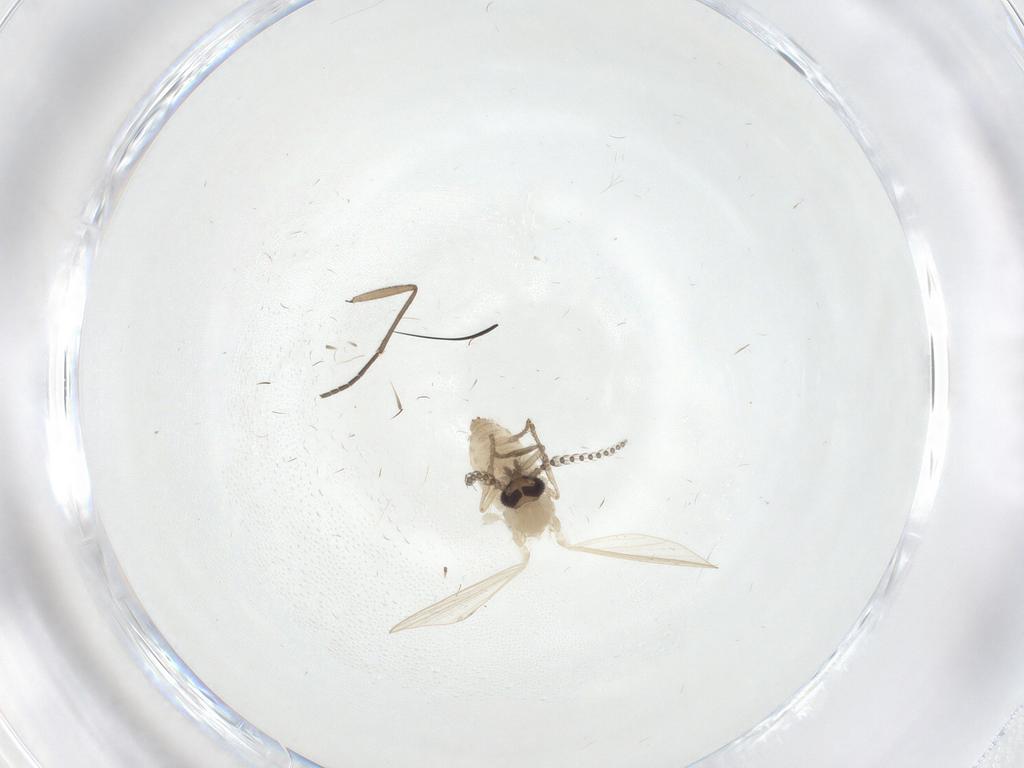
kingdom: Animalia
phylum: Arthropoda
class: Insecta
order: Diptera
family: Psychodidae
